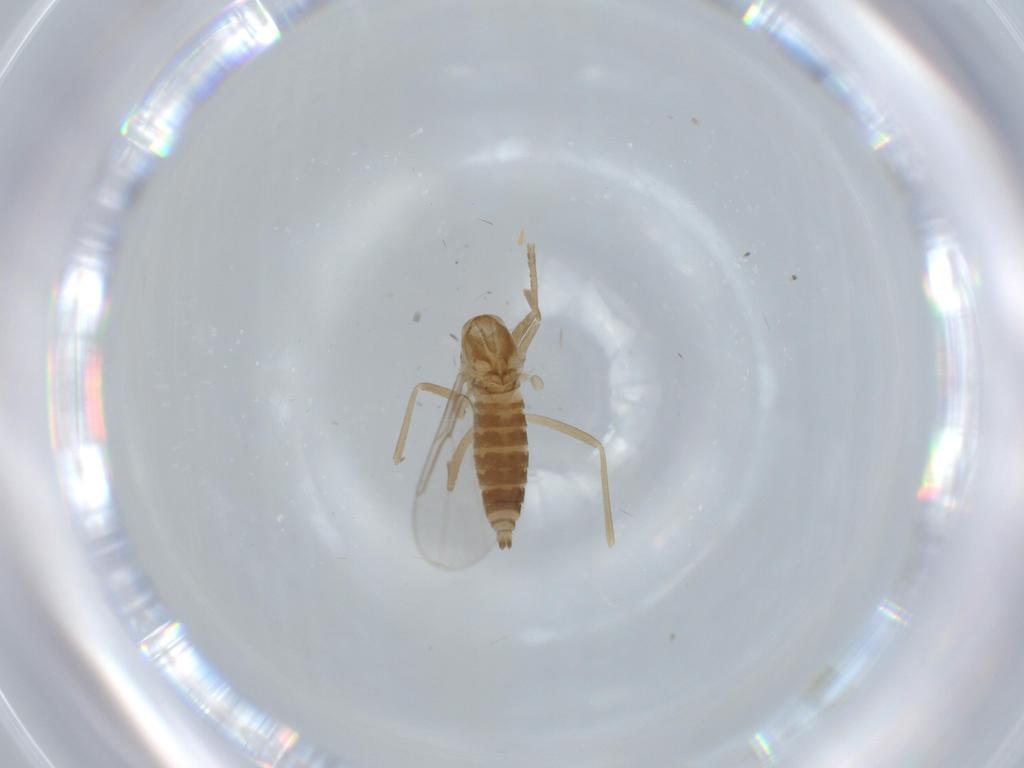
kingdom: Animalia
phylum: Arthropoda
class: Insecta
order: Diptera
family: Cecidomyiidae
